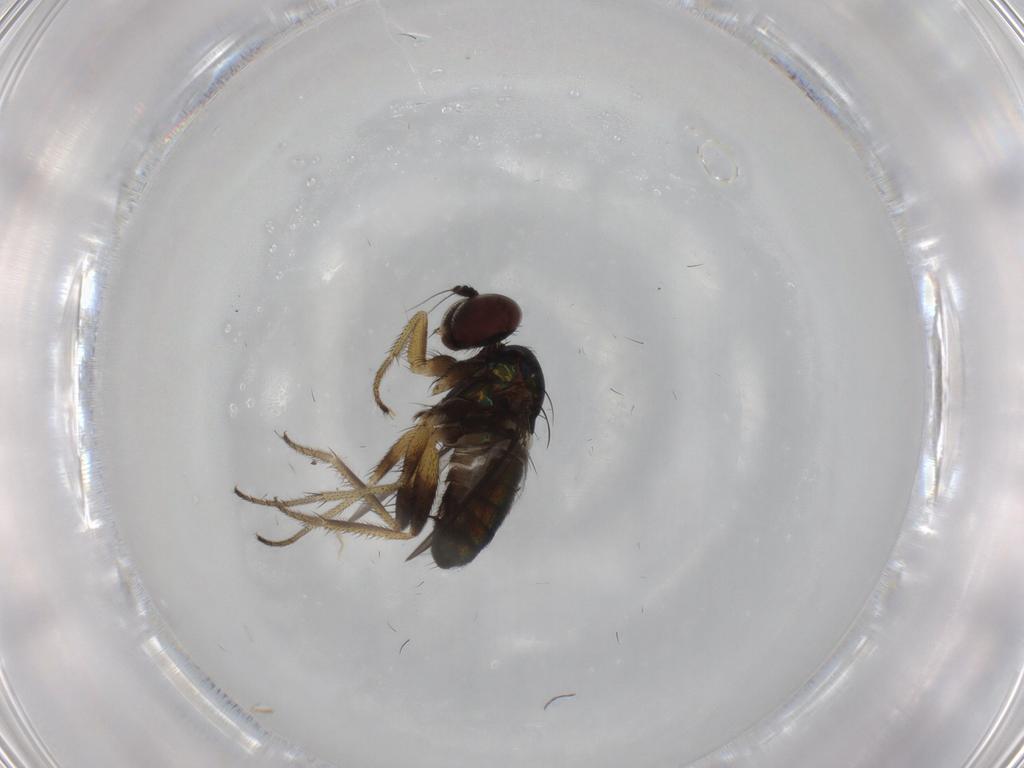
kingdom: Animalia
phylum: Arthropoda
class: Insecta
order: Diptera
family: Dolichopodidae
